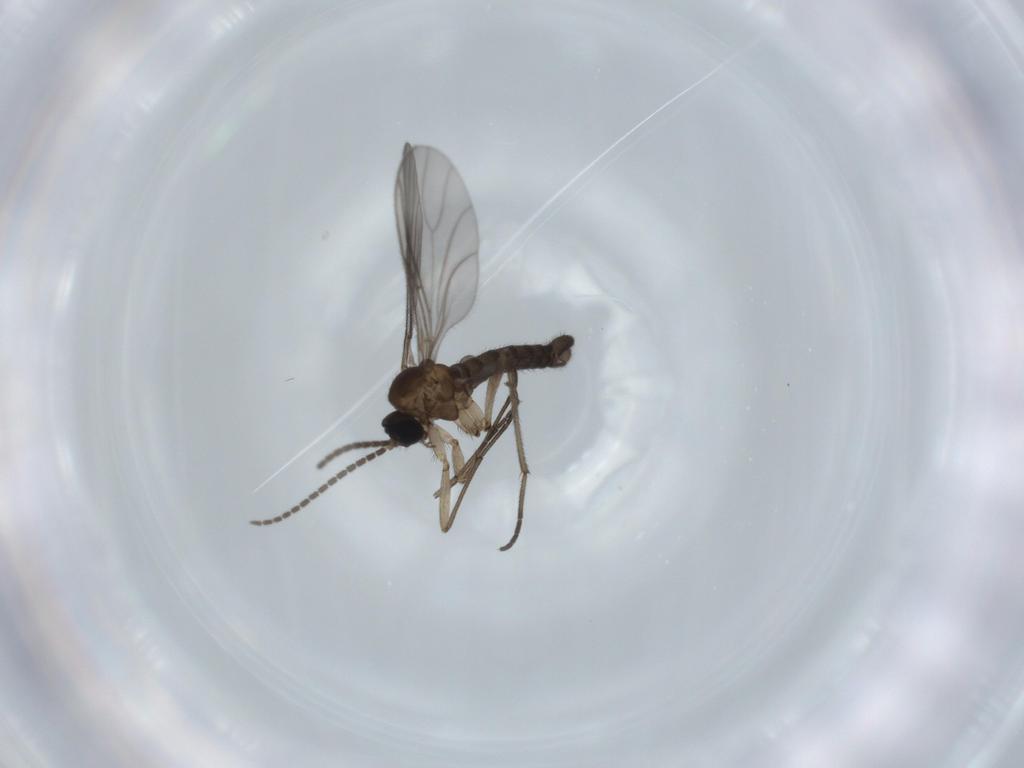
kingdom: Animalia
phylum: Arthropoda
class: Insecta
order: Diptera
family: Sciaridae
